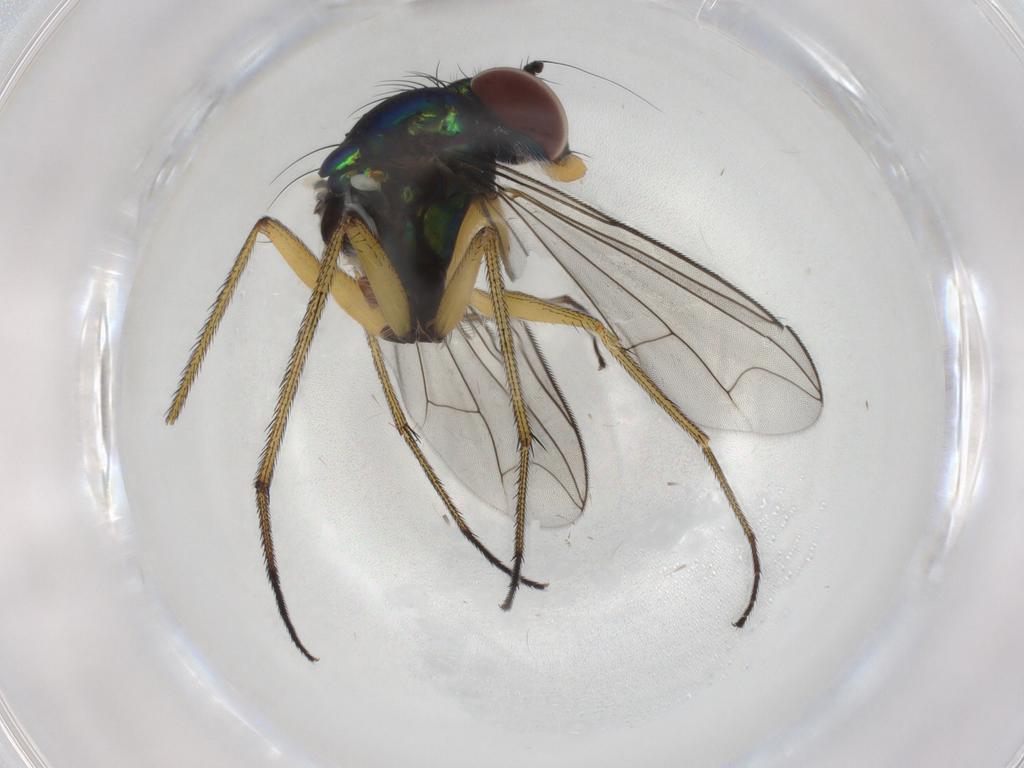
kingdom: Animalia
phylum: Arthropoda
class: Insecta
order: Diptera
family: Dolichopodidae
